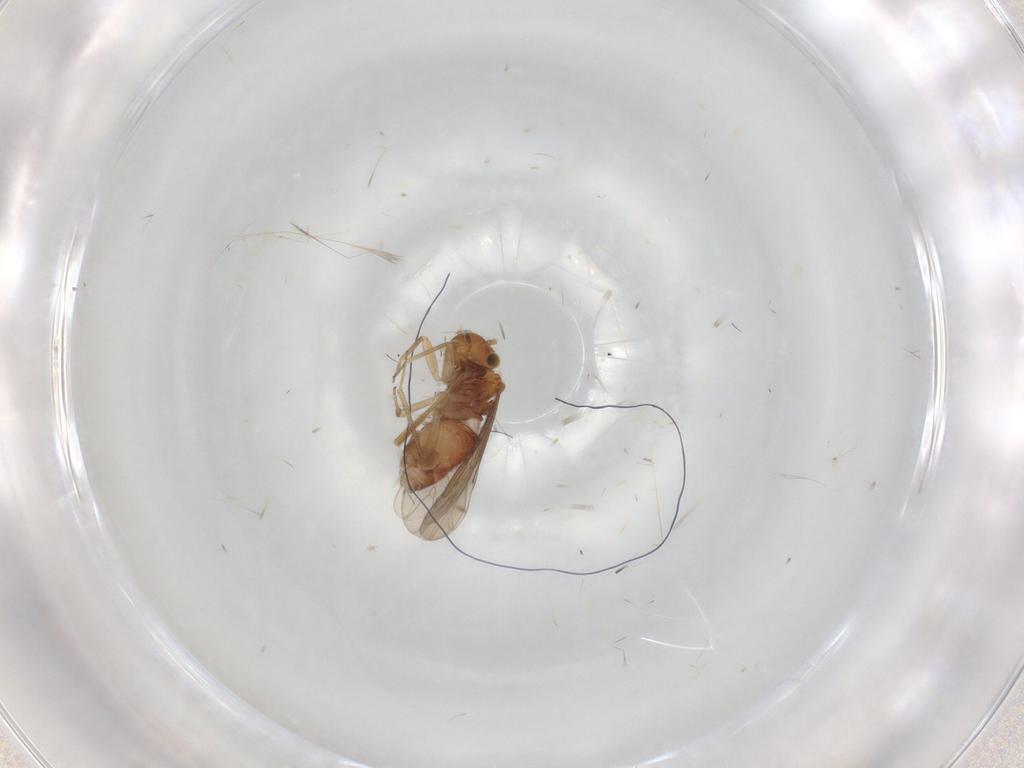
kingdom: Animalia
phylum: Arthropoda
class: Insecta
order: Psocodea
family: Ectopsocidae
